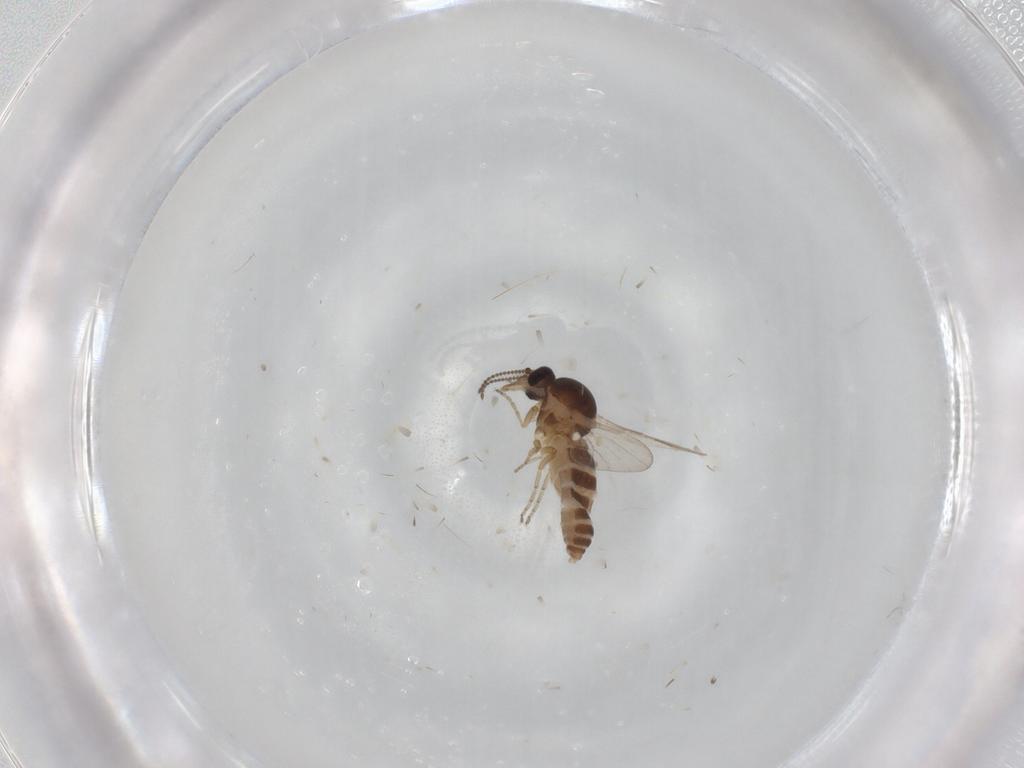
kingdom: Animalia
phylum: Arthropoda
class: Insecta
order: Diptera
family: Ceratopogonidae
